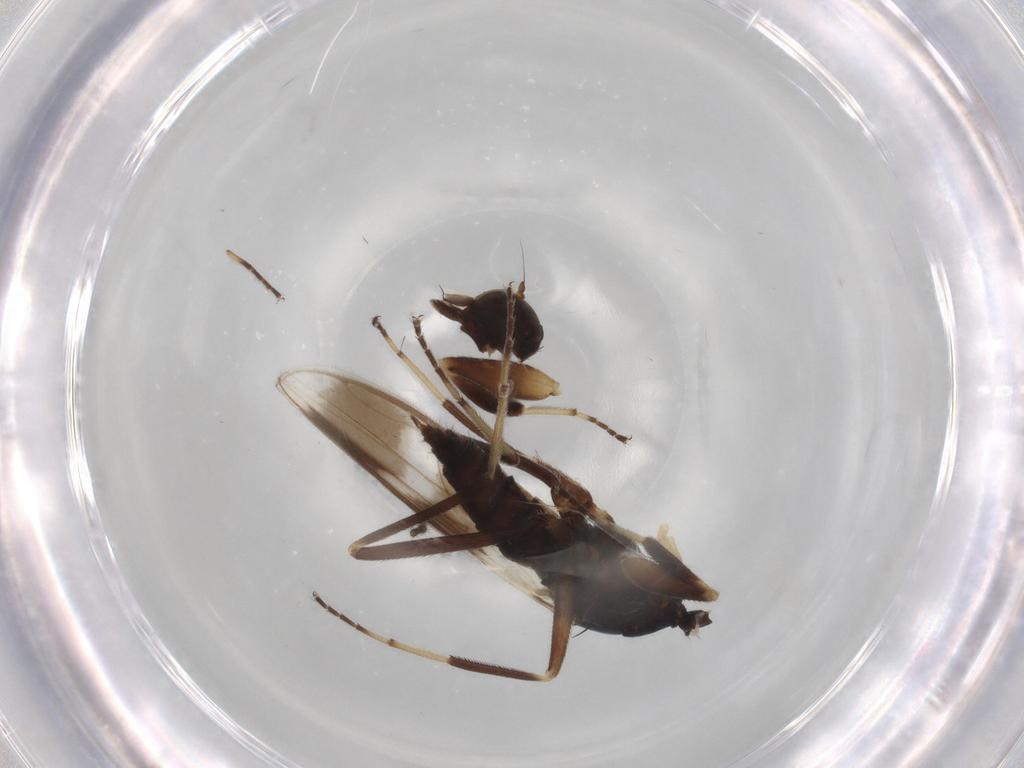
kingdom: Animalia
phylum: Arthropoda
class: Insecta
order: Diptera
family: Hybotidae
